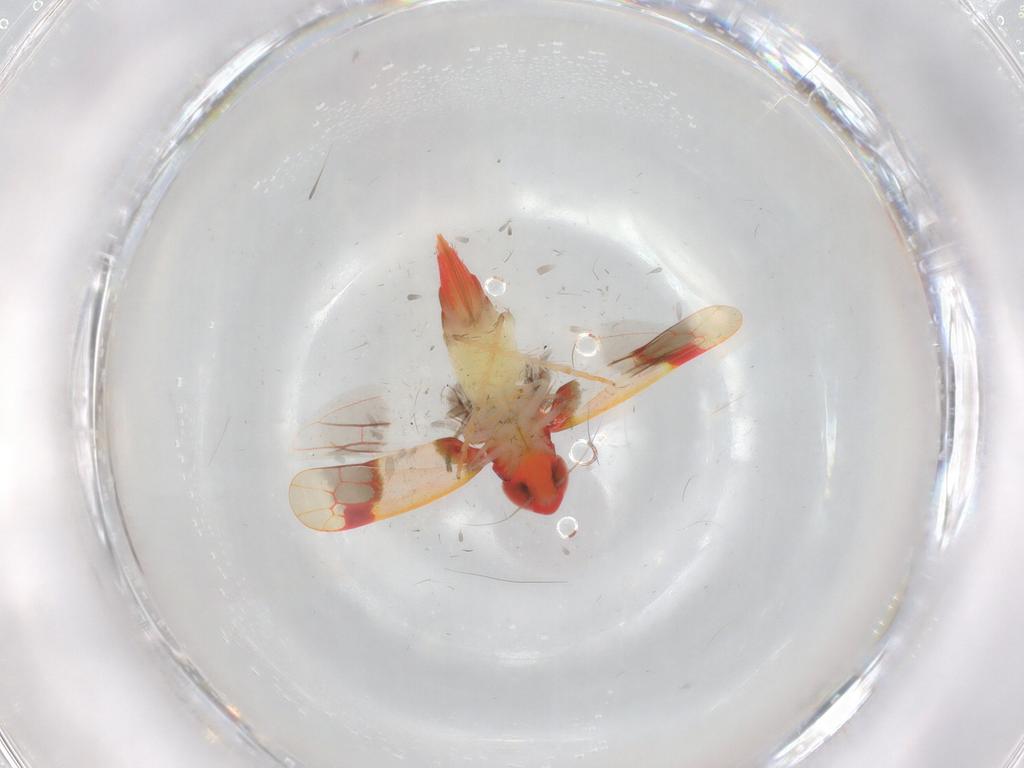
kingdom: Animalia
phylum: Arthropoda
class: Insecta
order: Hemiptera
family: Cicadellidae
